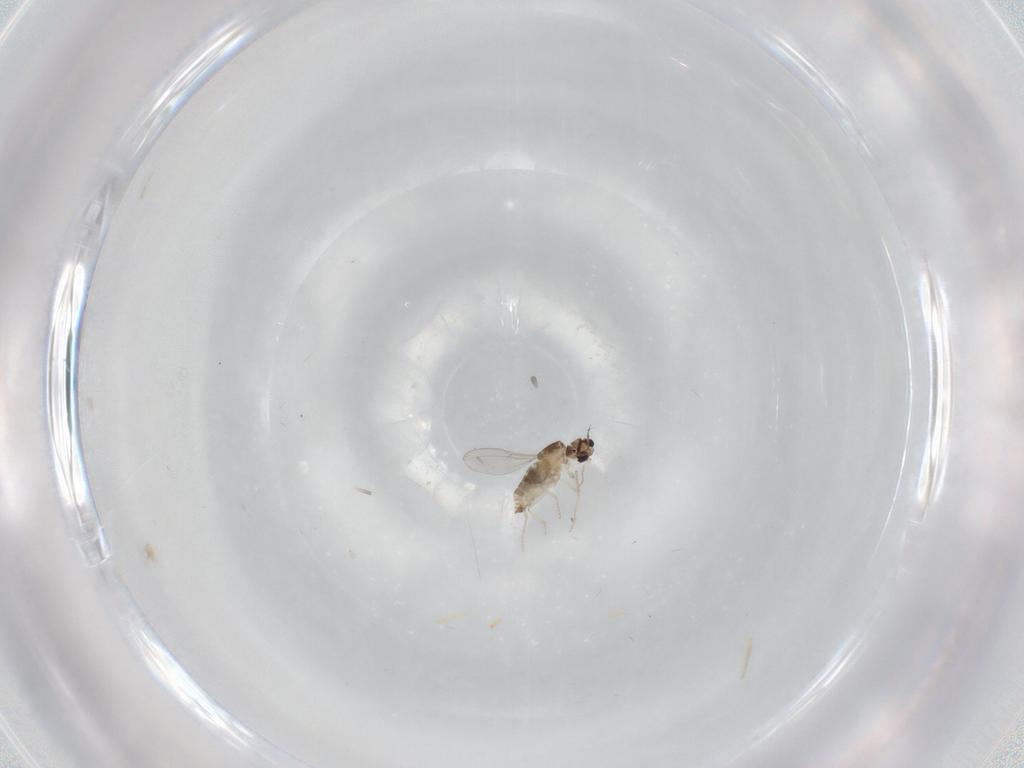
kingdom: Animalia
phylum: Arthropoda
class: Insecta
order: Diptera
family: Cecidomyiidae
